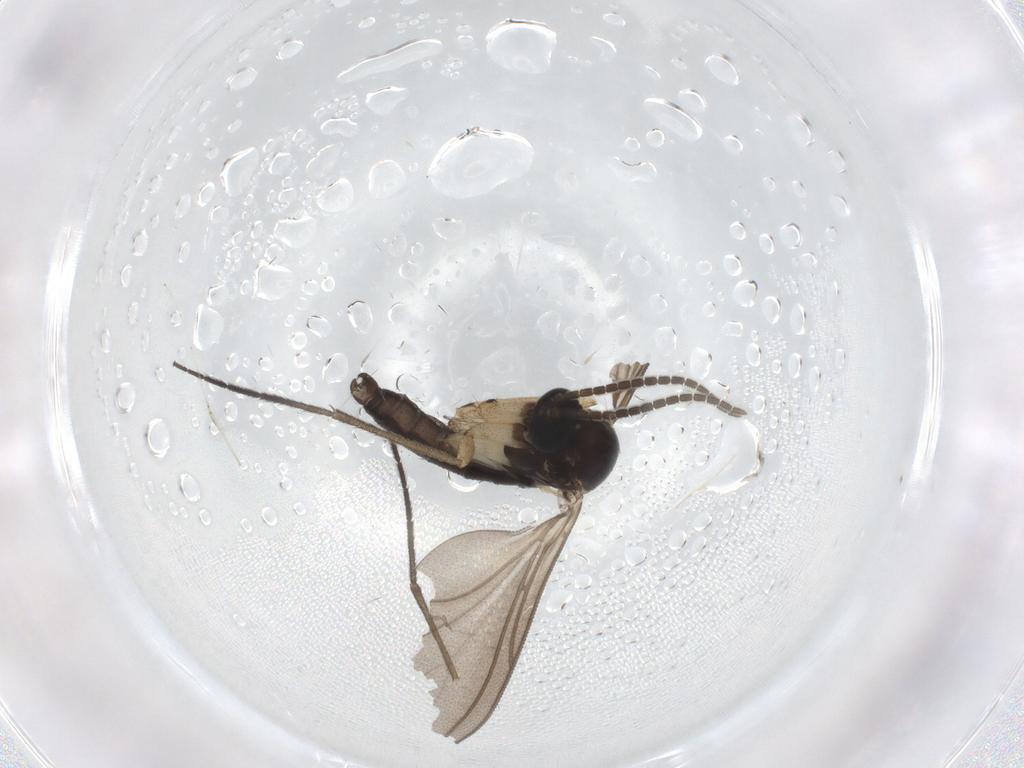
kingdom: Animalia
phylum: Arthropoda
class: Insecta
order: Diptera
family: Sciaridae
